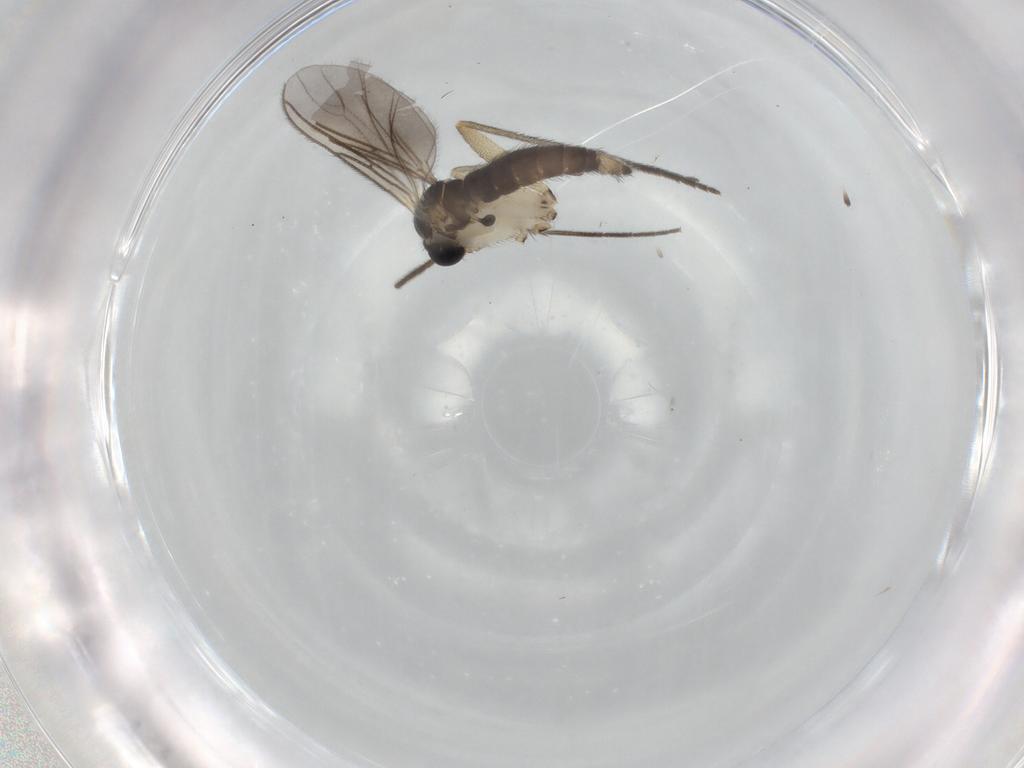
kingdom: Animalia
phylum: Arthropoda
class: Insecta
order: Diptera
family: Sciaridae
